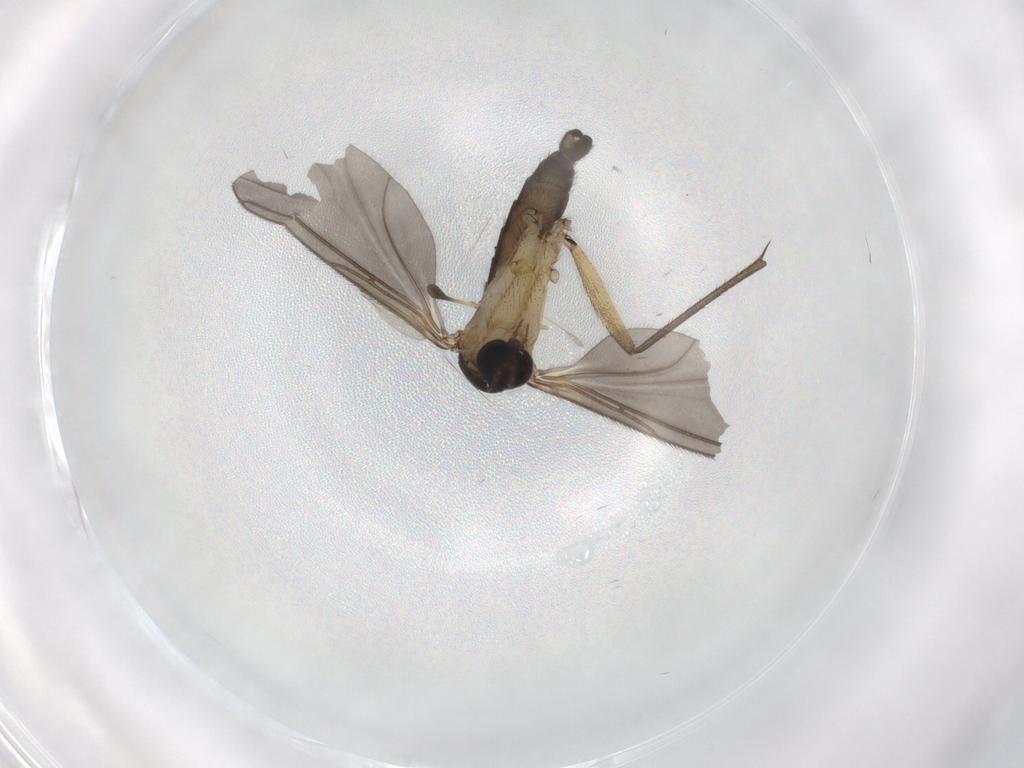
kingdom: Animalia
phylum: Arthropoda
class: Insecta
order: Diptera
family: Sciaridae
